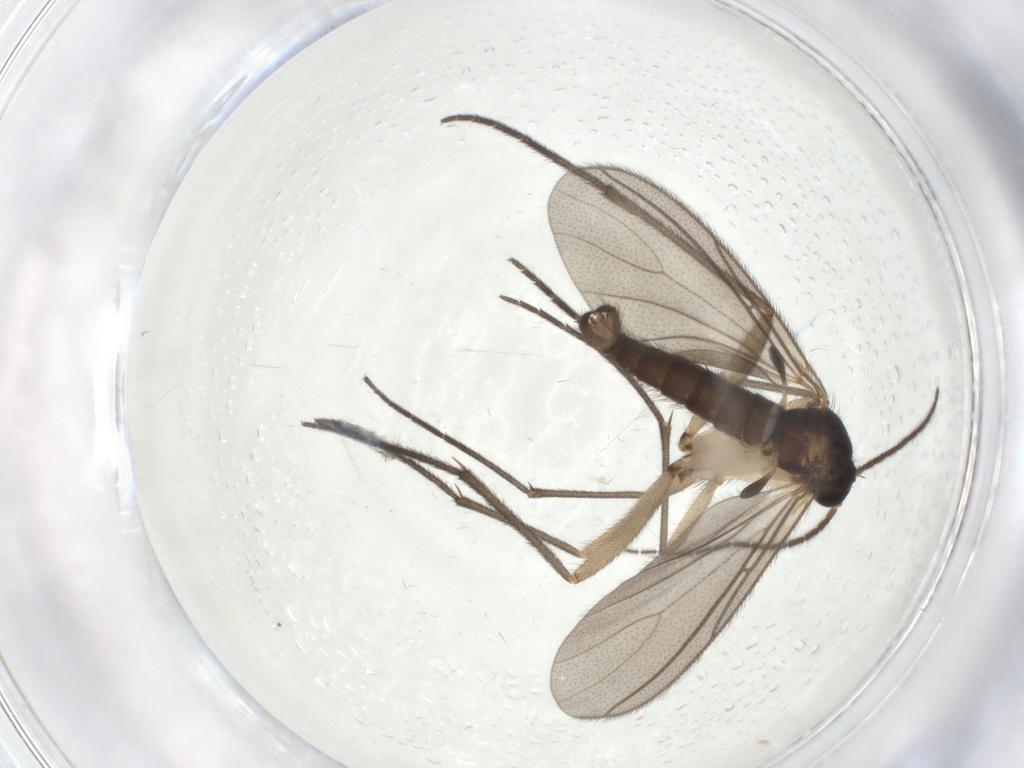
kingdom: Animalia
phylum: Arthropoda
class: Insecta
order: Diptera
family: Sciaridae
